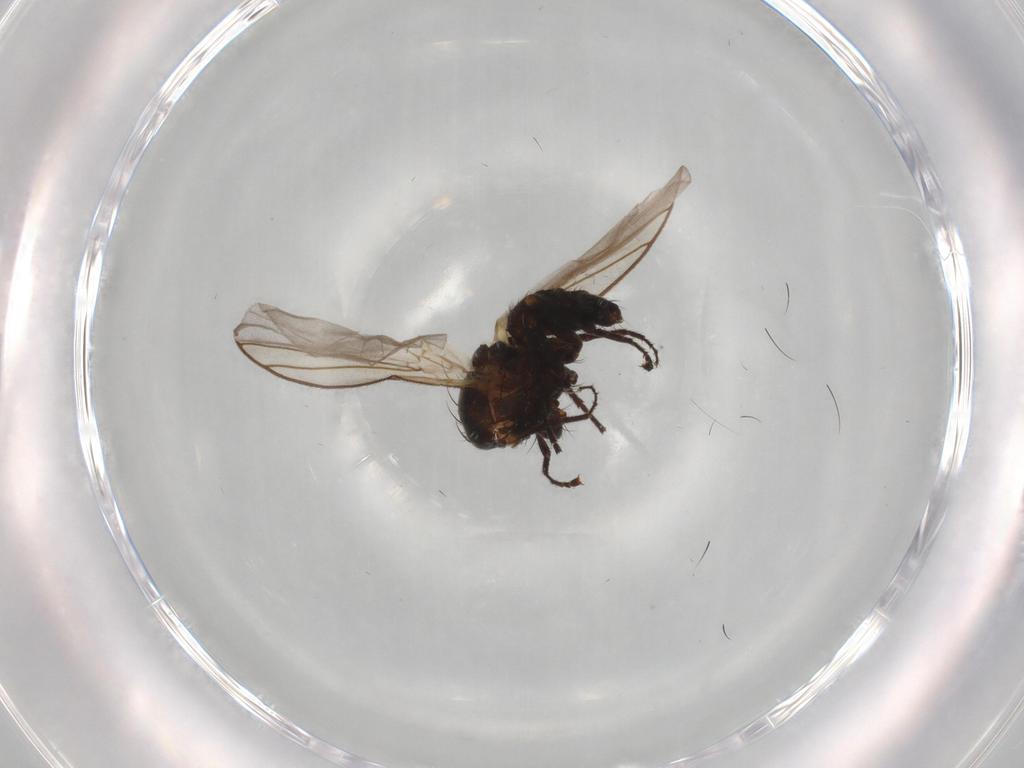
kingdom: Animalia
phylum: Arthropoda
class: Insecta
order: Diptera
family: Agromyzidae
